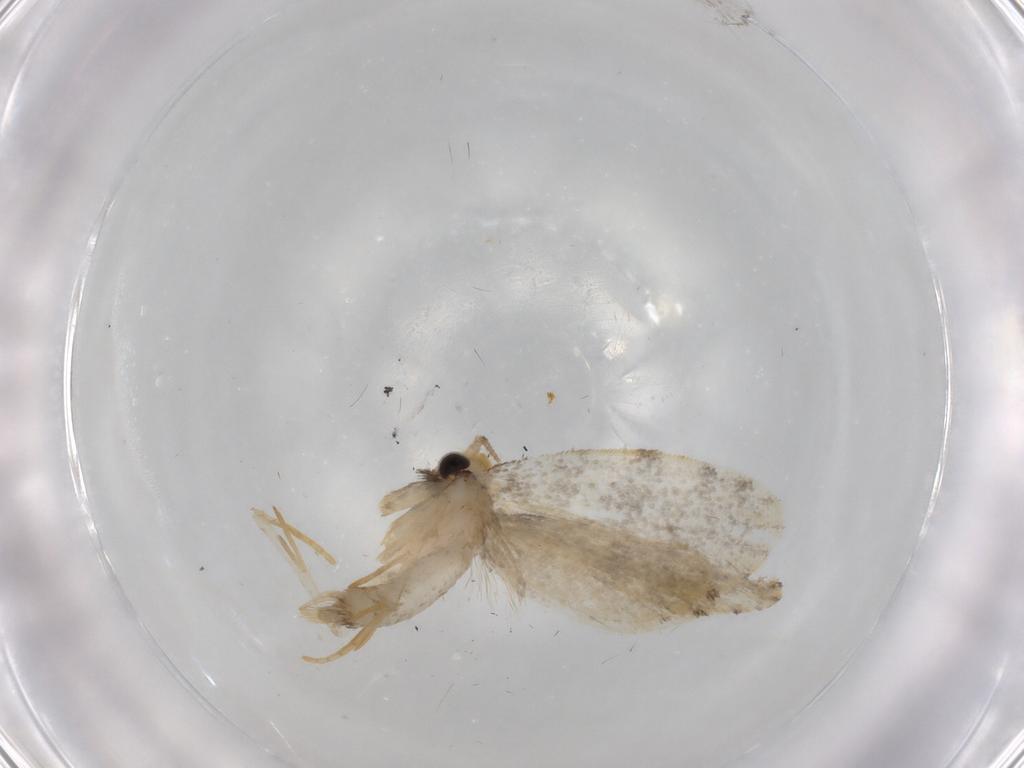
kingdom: Animalia
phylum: Arthropoda
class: Insecta
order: Lepidoptera
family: Psychidae
